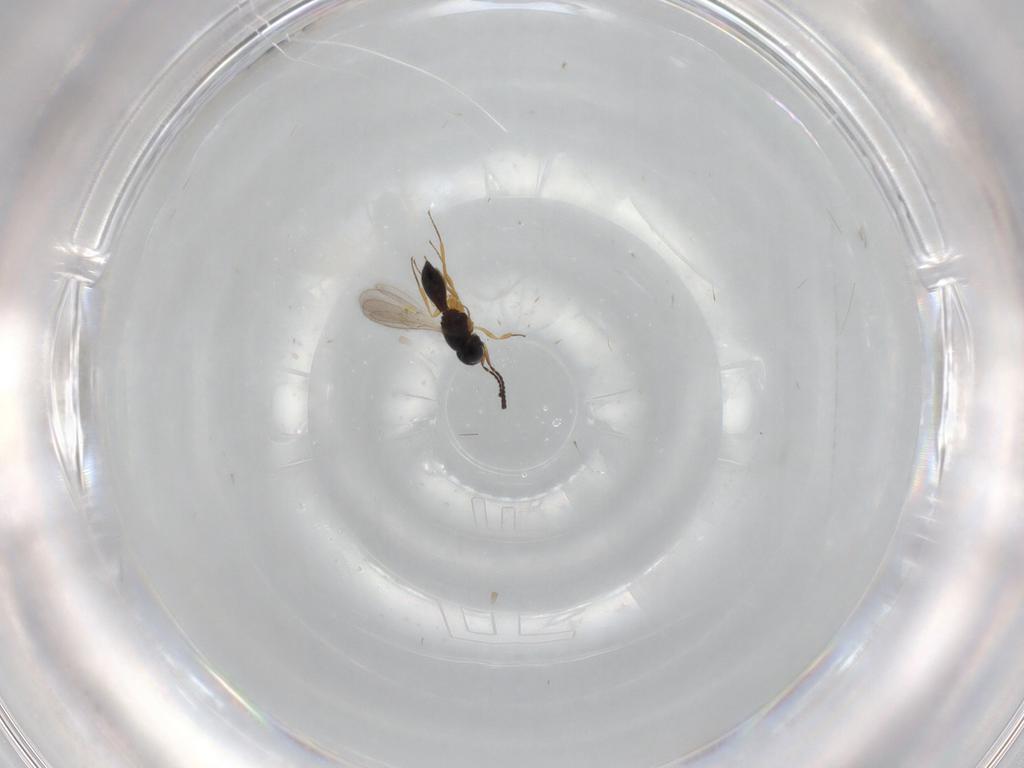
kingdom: Animalia
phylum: Arthropoda
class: Insecta
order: Hymenoptera
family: Scelionidae
